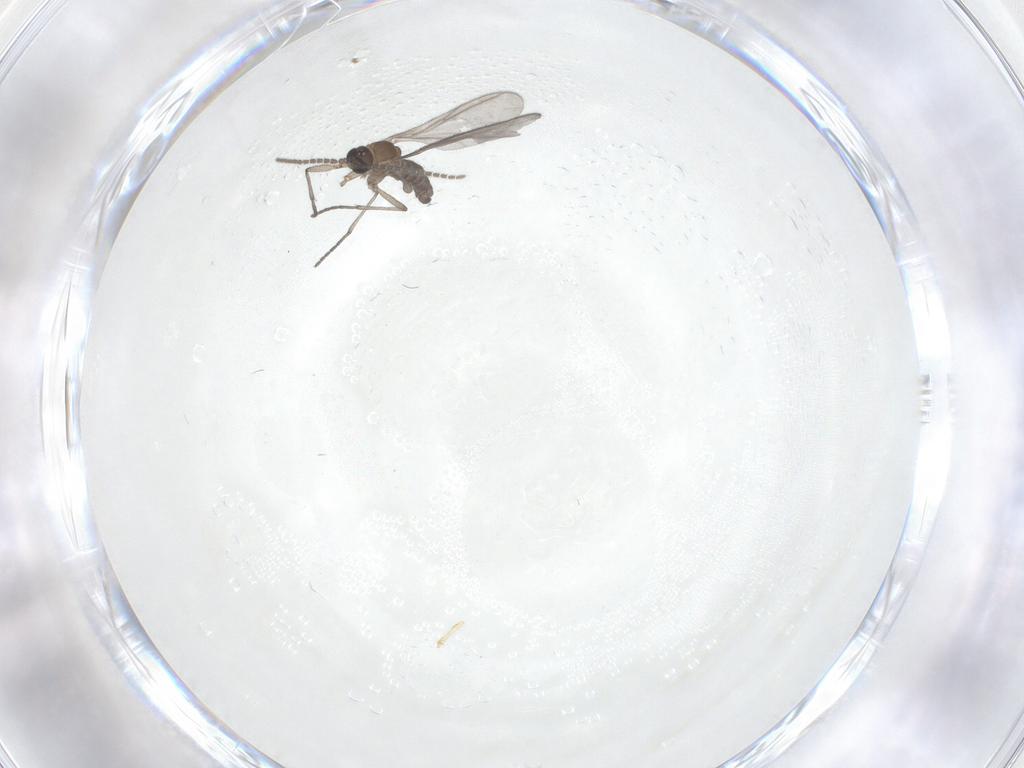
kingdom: Animalia
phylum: Arthropoda
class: Insecta
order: Diptera
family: Sciaridae
